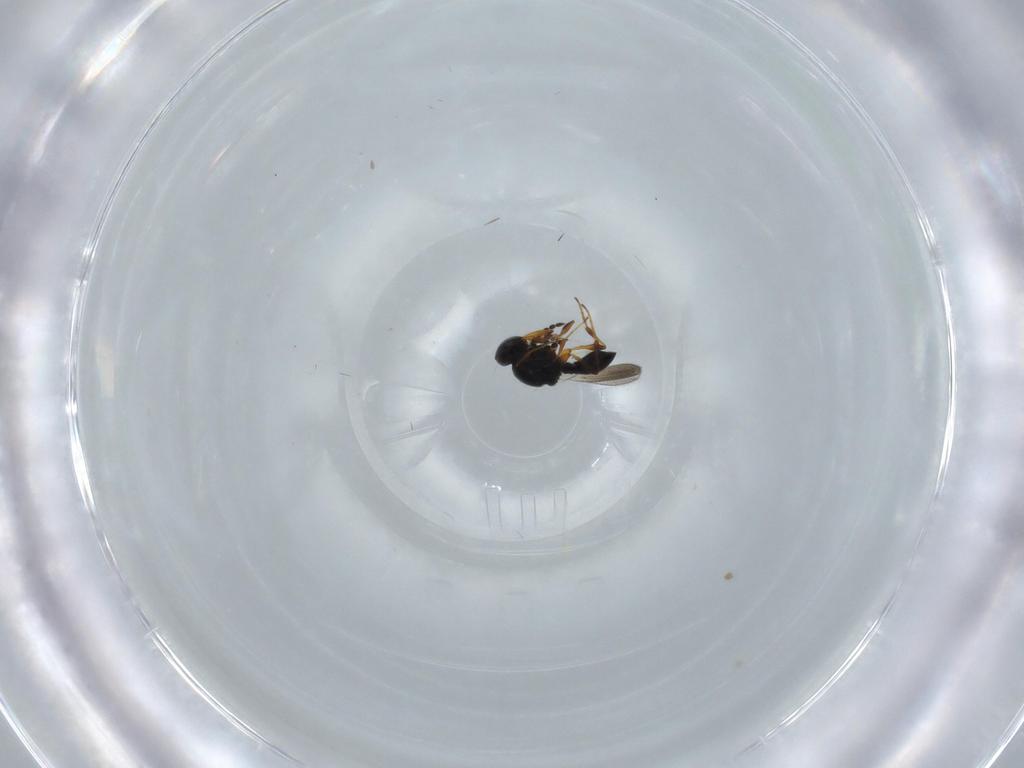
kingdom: Animalia
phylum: Arthropoda
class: Insecta
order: Hymenoptera
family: Platygastridae
